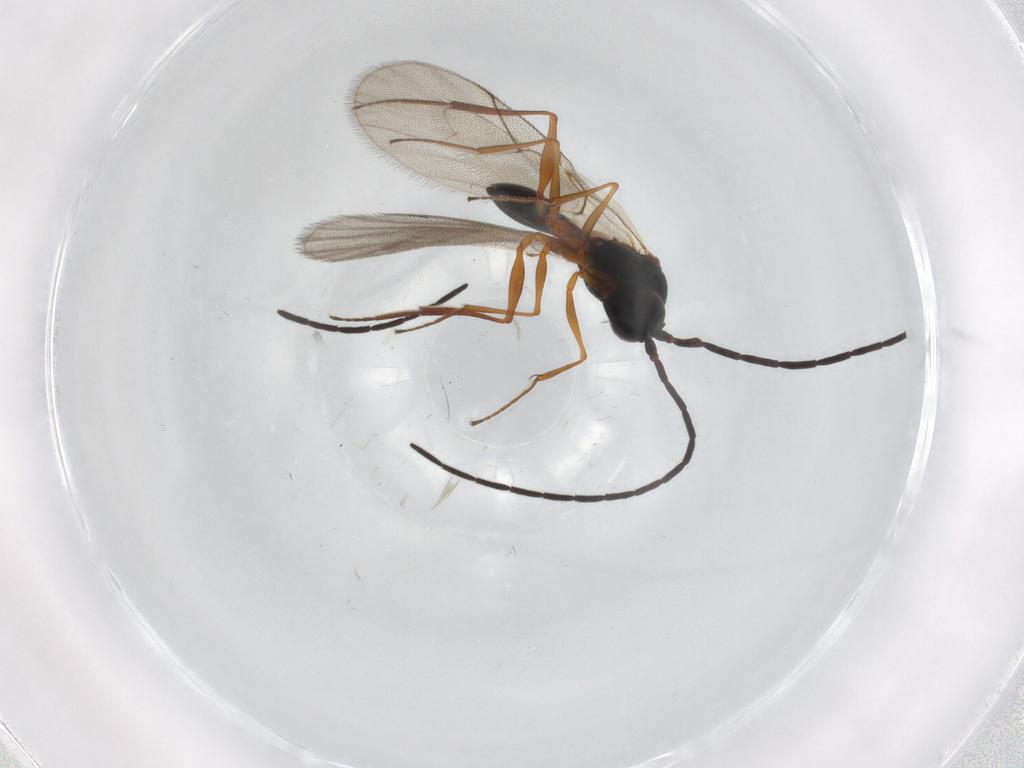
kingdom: Animalia
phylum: Arthropoda
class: Insecta
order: Hymenoptera
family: Figitidae
